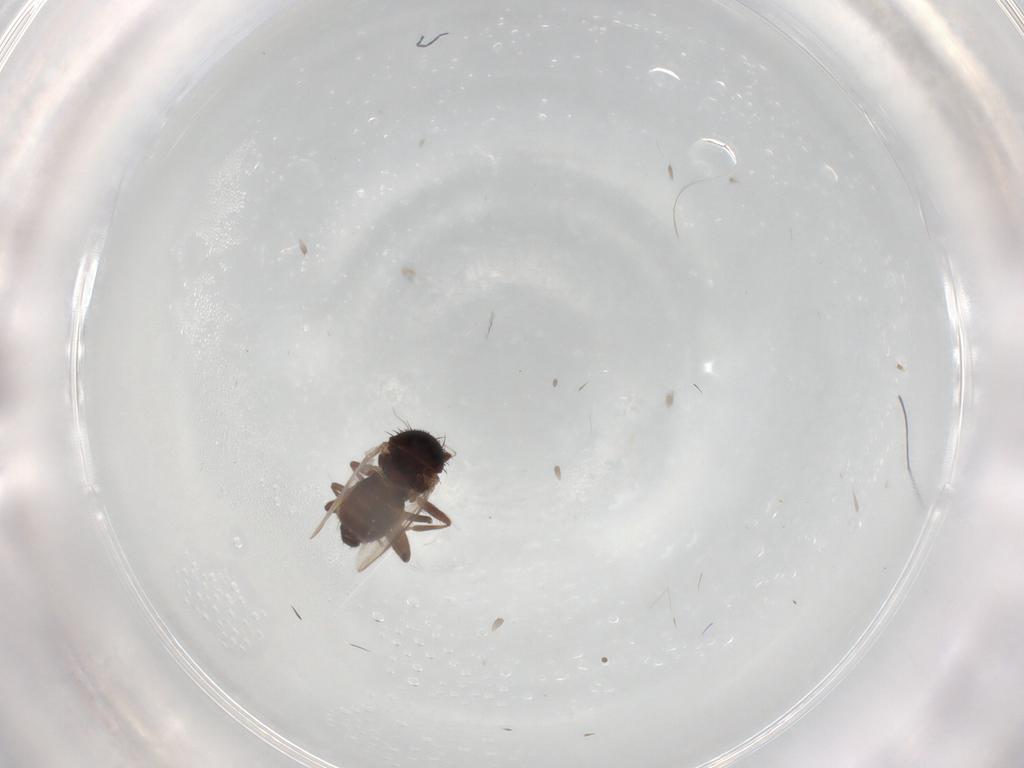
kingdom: Animalia
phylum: Arthropoda
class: Insecta
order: Diptera
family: Sphaeroceridae
